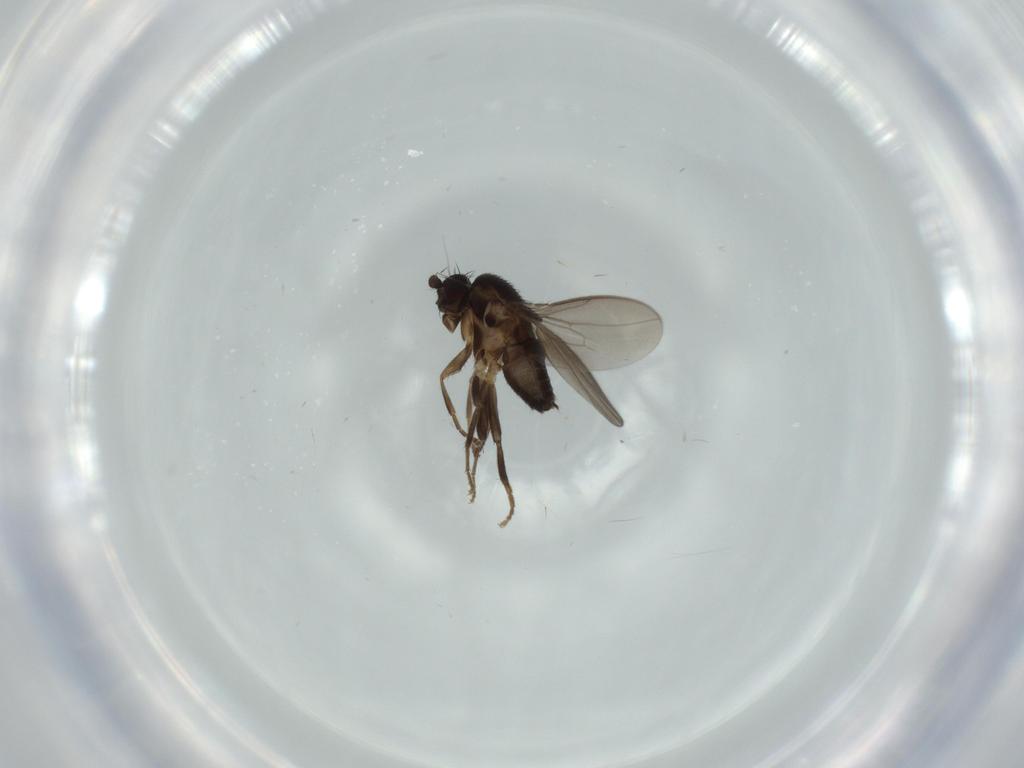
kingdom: Animalia
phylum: Arthropoda
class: Insecta
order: Diptera
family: Sphaeroceridae
